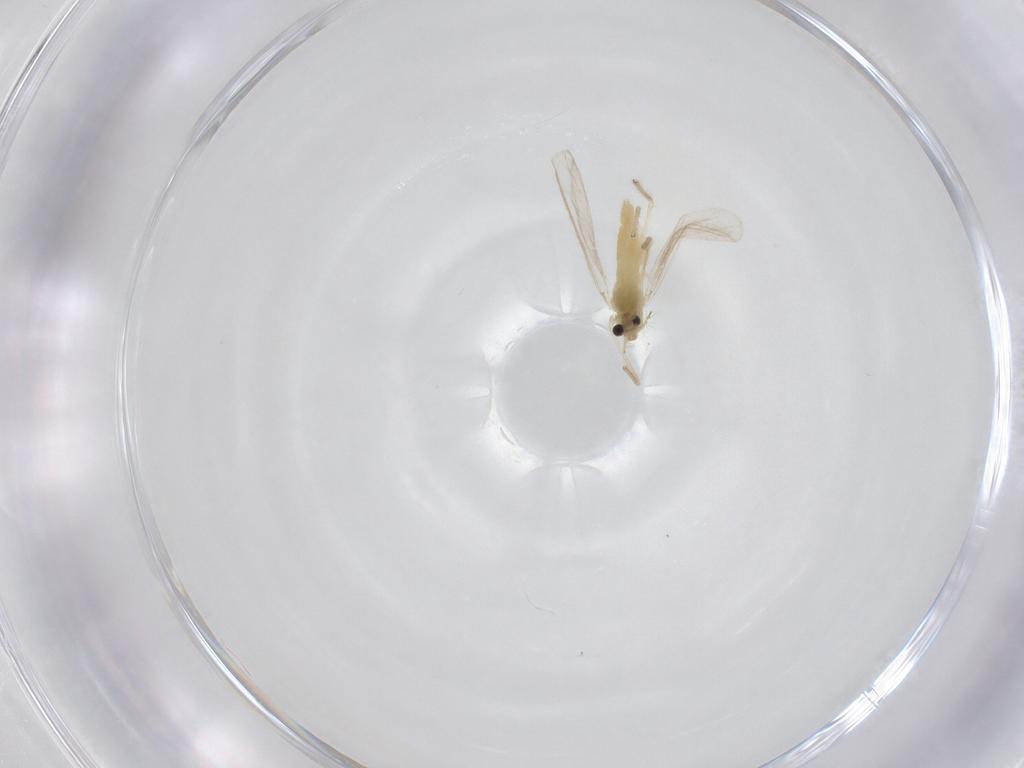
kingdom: Animalia
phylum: Arthropoda
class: Insecta
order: Diptera
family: Chironomidae
